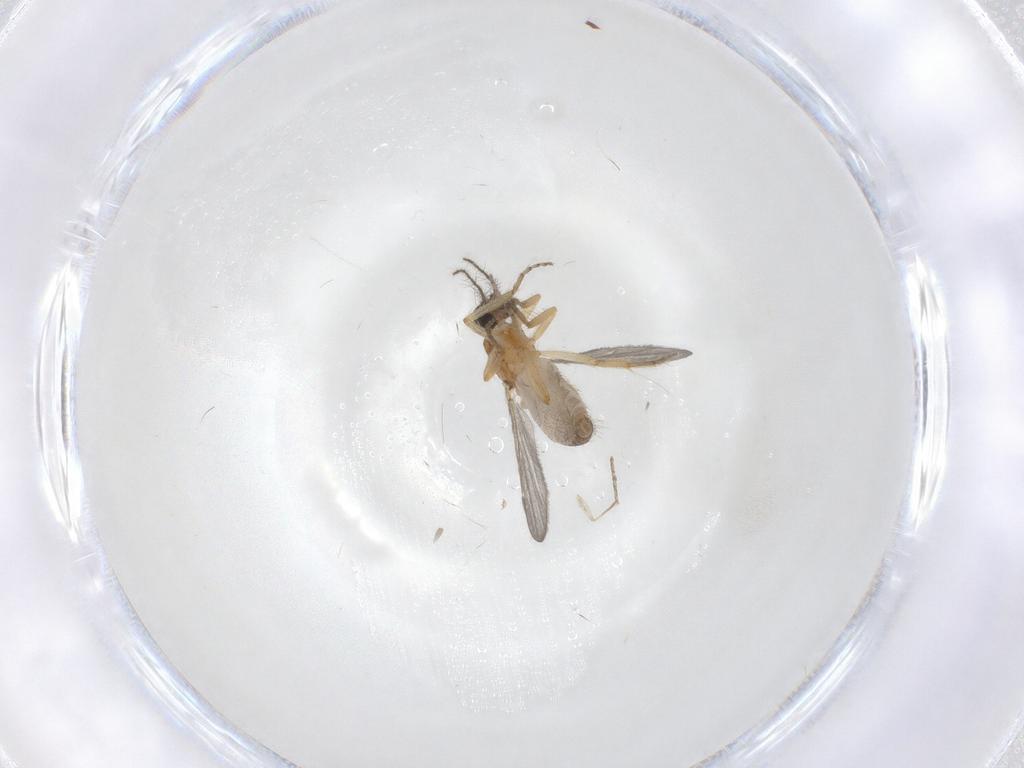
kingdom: Animalia
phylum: Arthropoda
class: Insecta
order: Diptera
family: Ceratopogonidae
